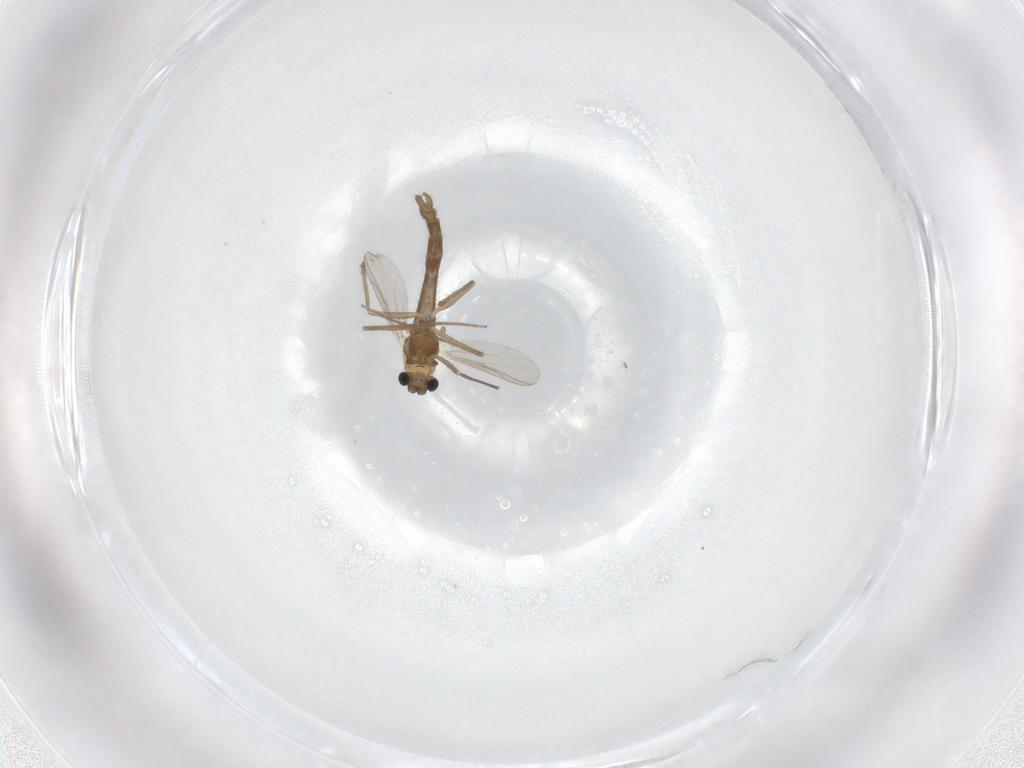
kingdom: Animalia
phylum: Arthropoda
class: Insecta
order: Diptera
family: Chironomidae
